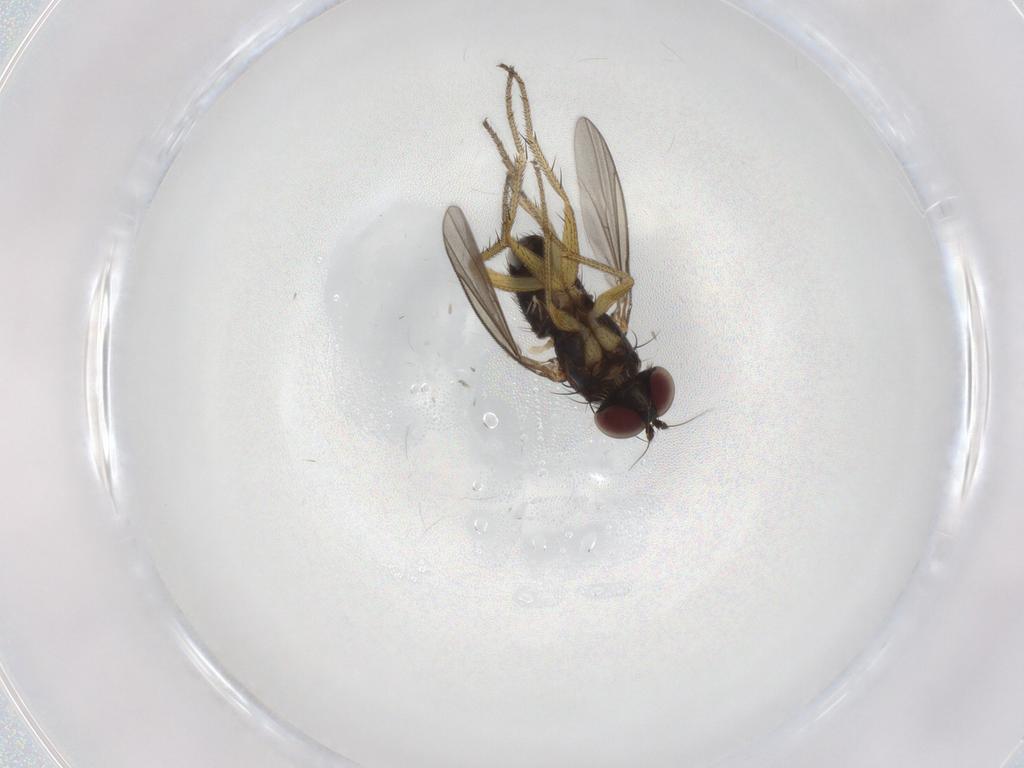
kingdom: Animalia
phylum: Arthropoda
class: Insecta
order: Diptera
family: Dolichopodidae
